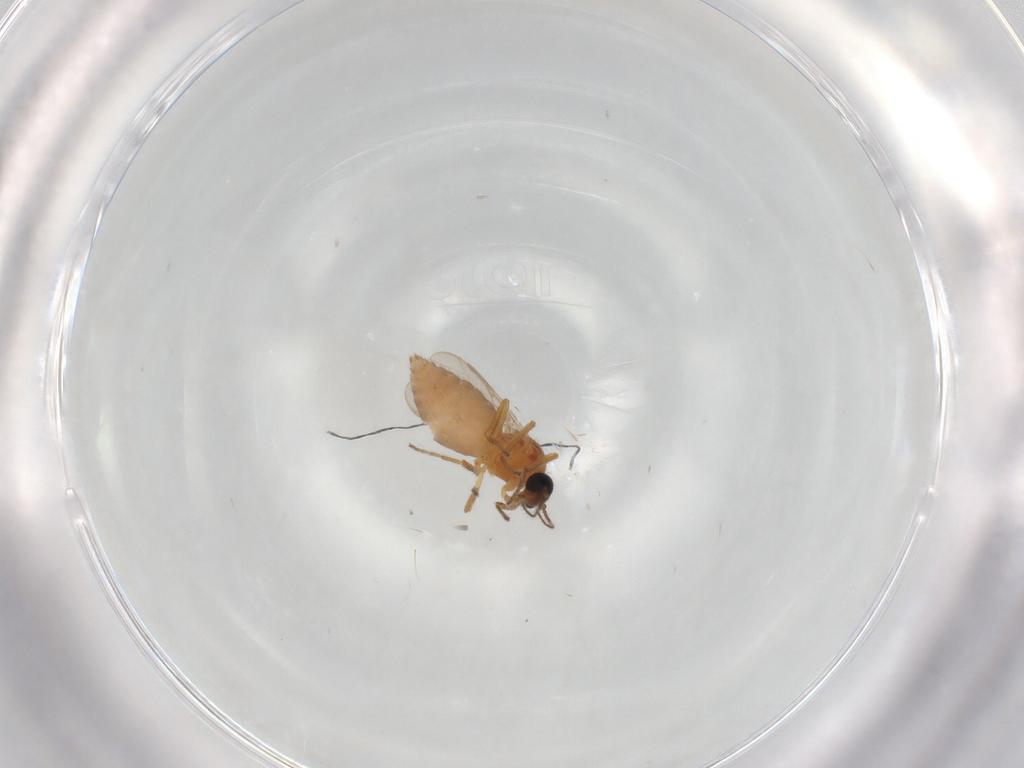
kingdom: Animalia
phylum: Arthropoda
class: Insecta
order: Diptera
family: Ceratopogonidae
